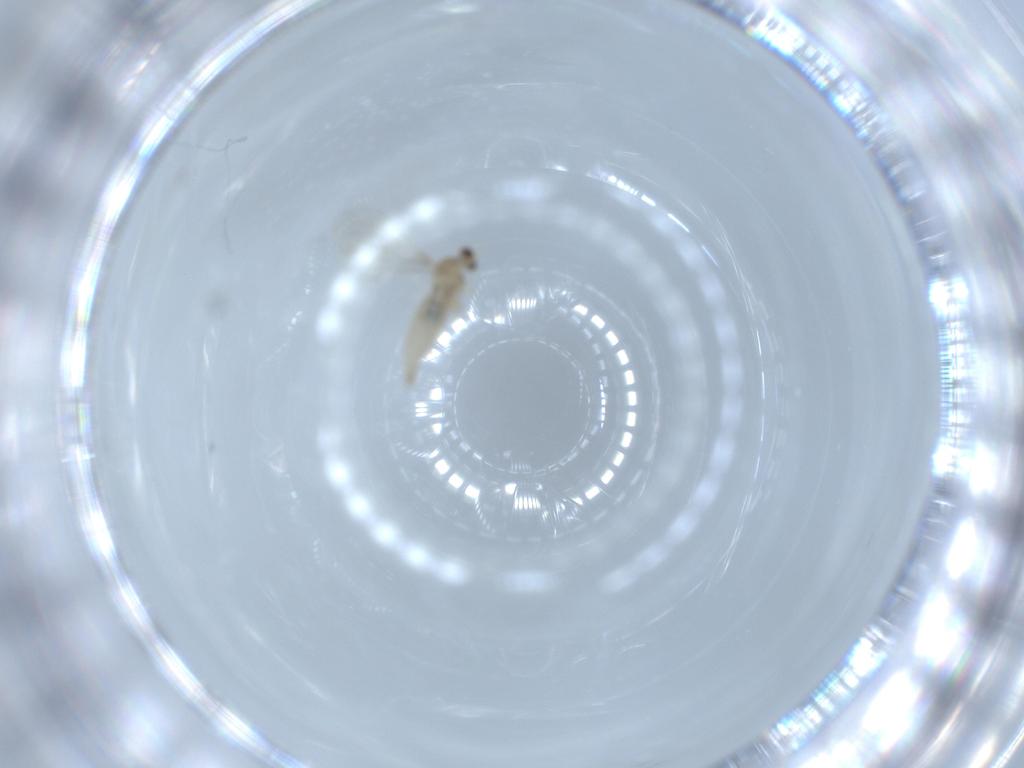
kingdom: Animalia
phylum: Arthropoda
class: Insecta
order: Diptera
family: Cecidomyiidae
